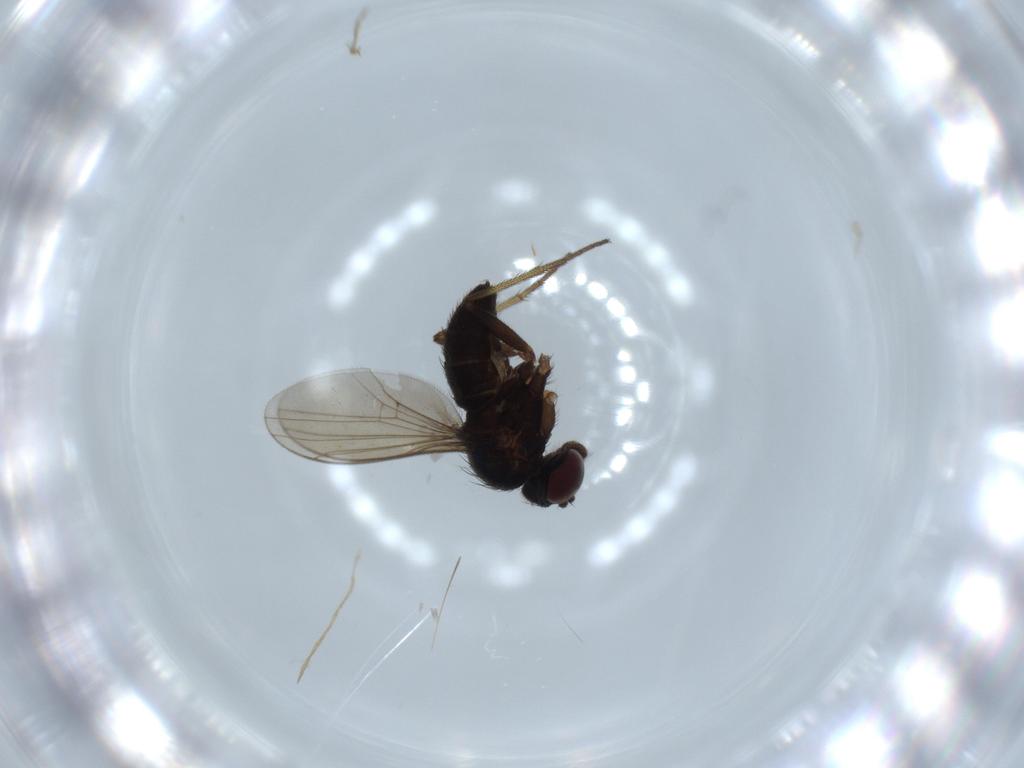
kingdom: Animalia
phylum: Arthropoda
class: Insecta
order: Diptera
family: Dolichopodidae
